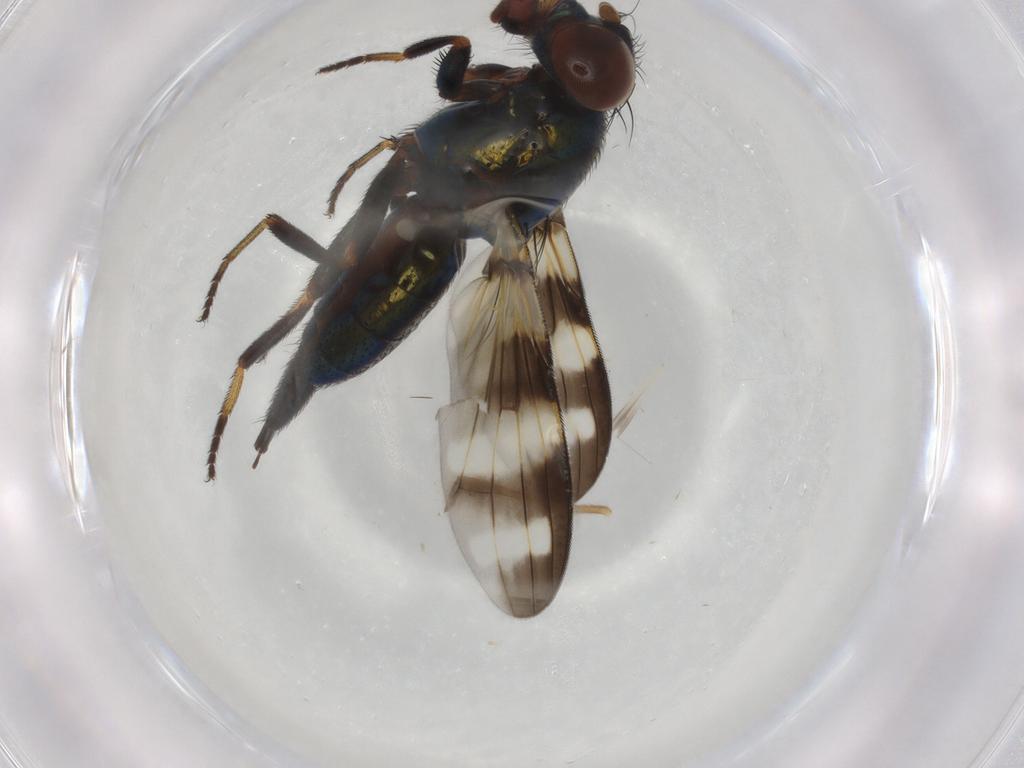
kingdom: Animalia
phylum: Arthropoda
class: Insecta
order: Diptera
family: Ulidiidae
